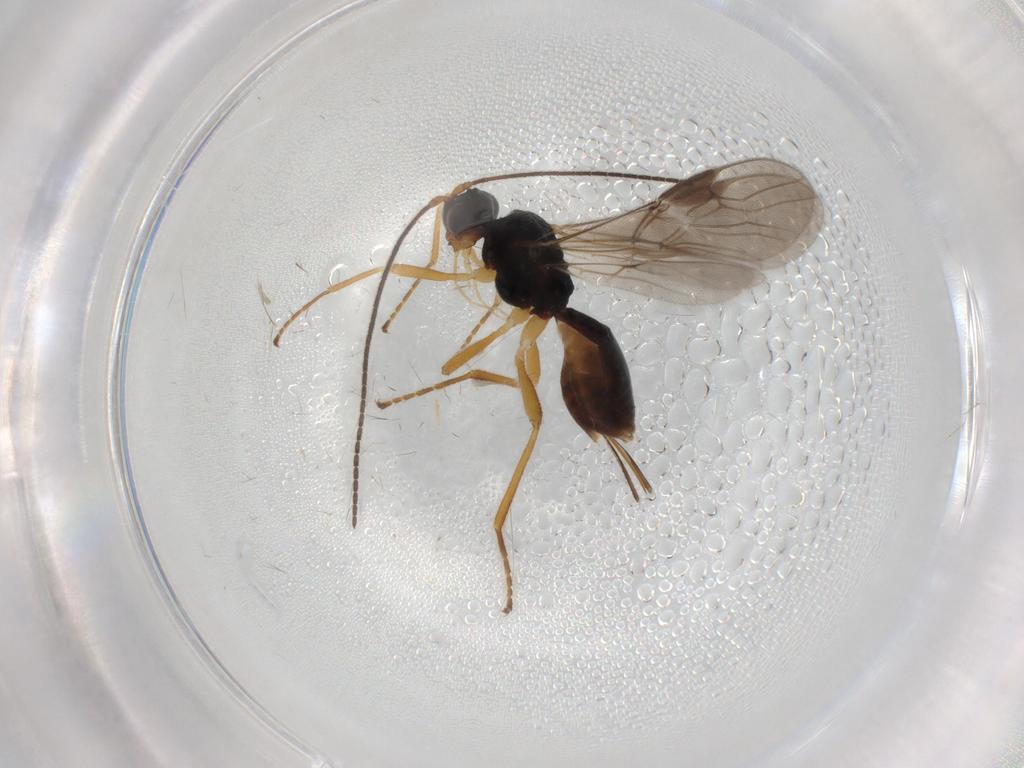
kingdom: Animalia
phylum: Arthropoda
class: Insecta
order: Hymenoptera
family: Braconidae
